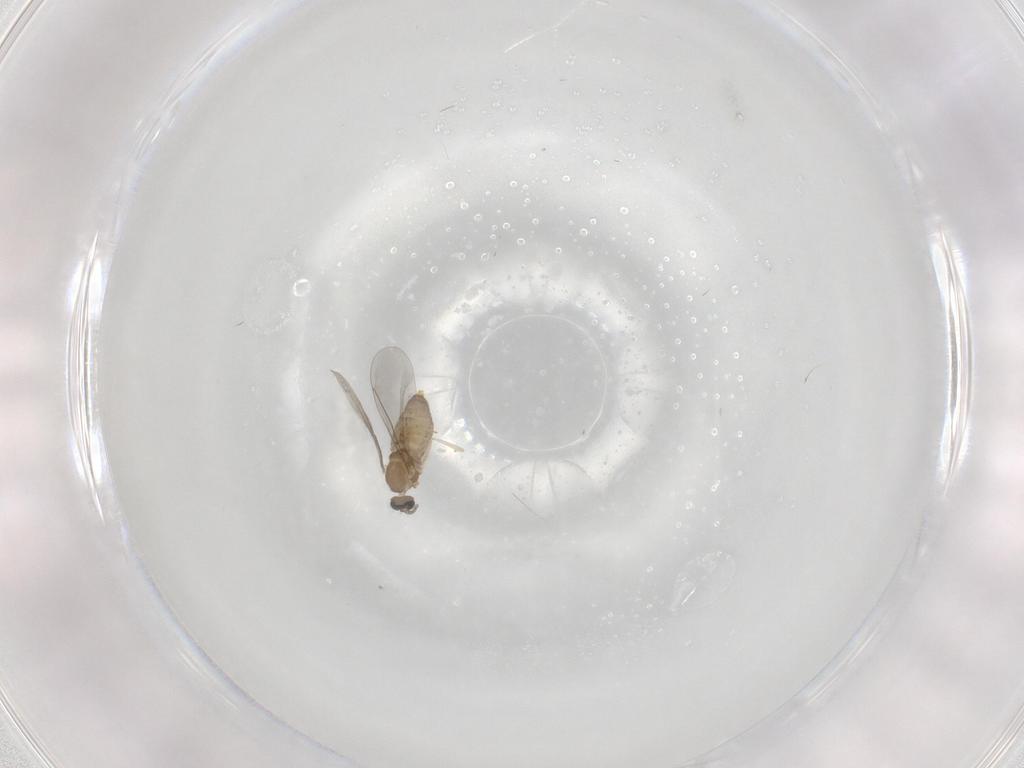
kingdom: Animalia
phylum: Arthropoda
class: Insecta
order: Diptera
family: Cecidomyiidae
